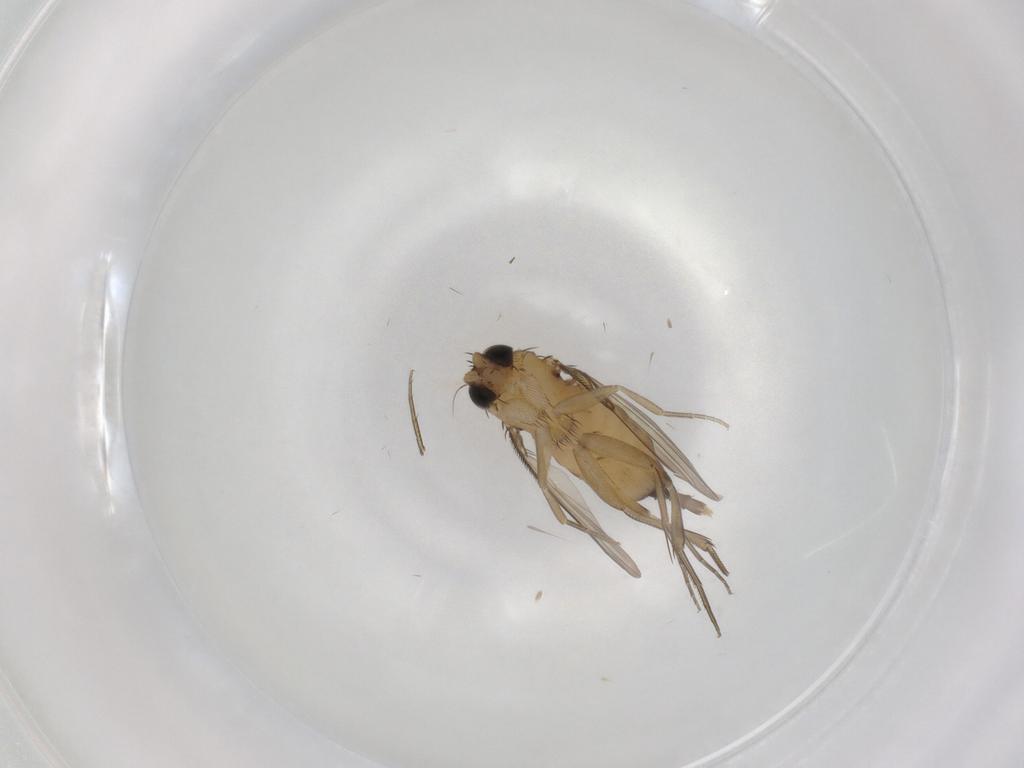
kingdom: Animalia
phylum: Arthropoda
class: Insecta
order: Diptera
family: Phoridae
